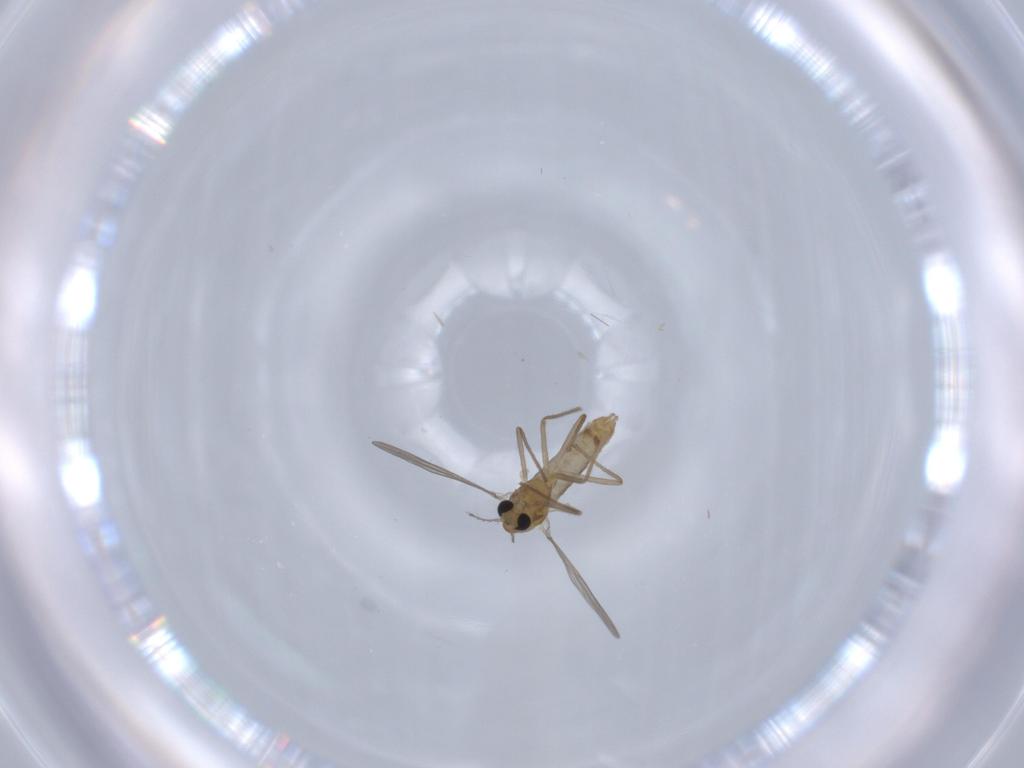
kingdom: Animalia
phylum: Arthropoda
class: Insecta
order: Diptera
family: Chironomidae
